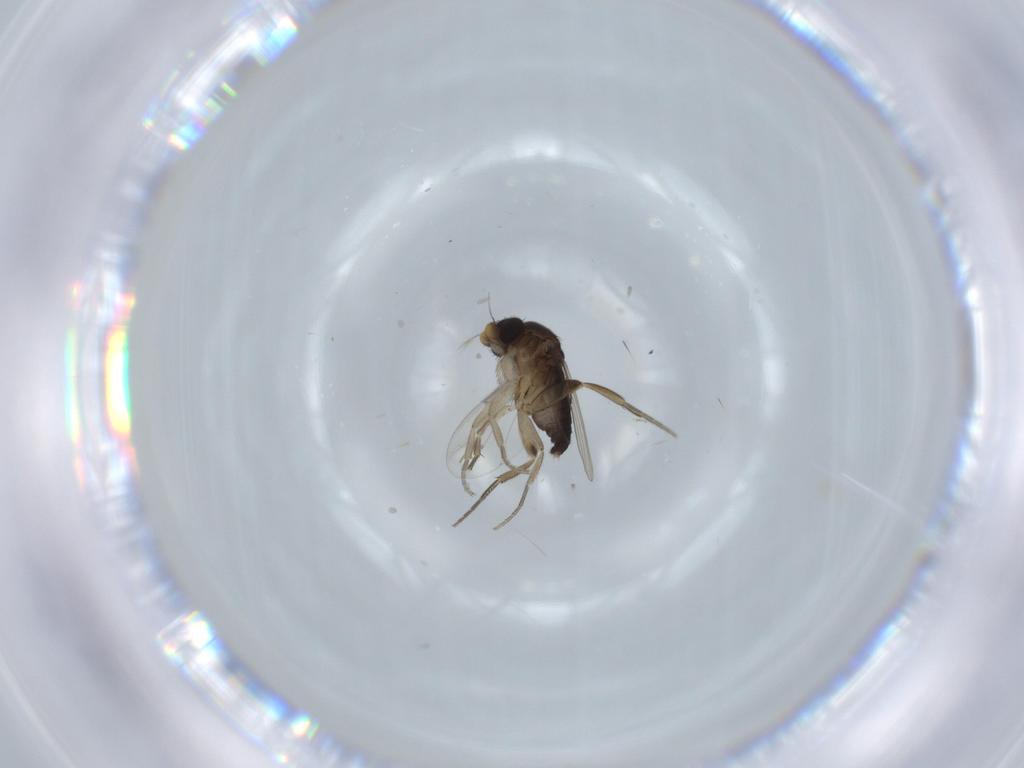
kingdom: Animalia
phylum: Arthropoda
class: Insecta
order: Diptera
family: Phoridae
